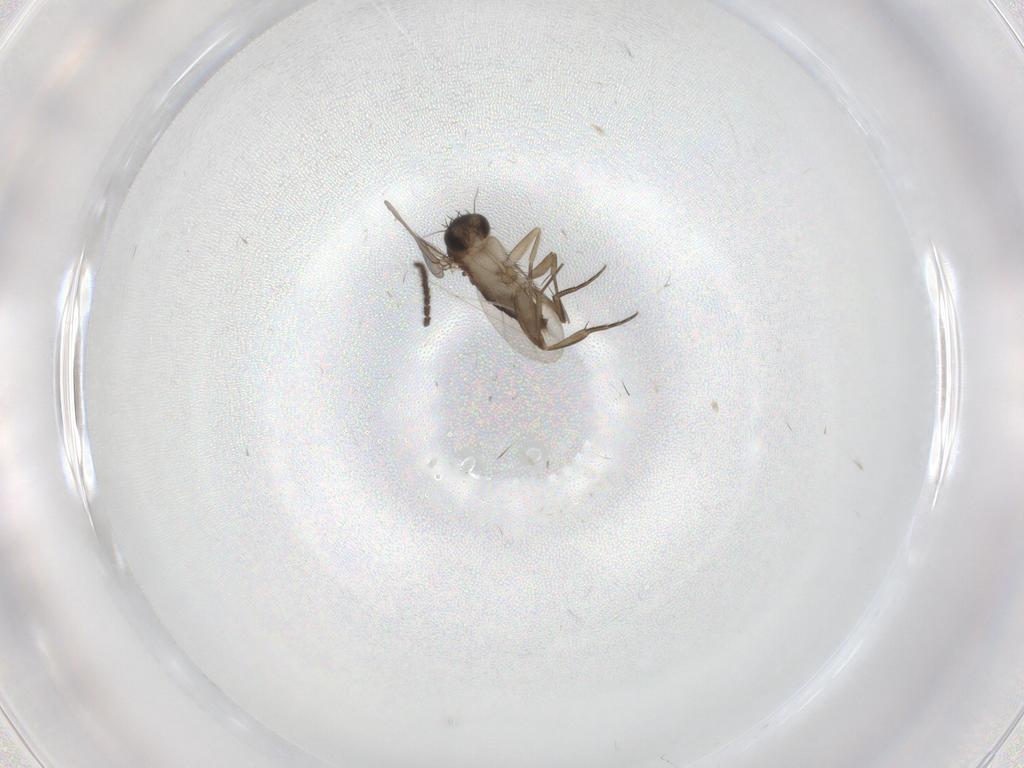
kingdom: Animalia
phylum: Arthropoda
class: Insecta
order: Diptera
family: Phoridae
